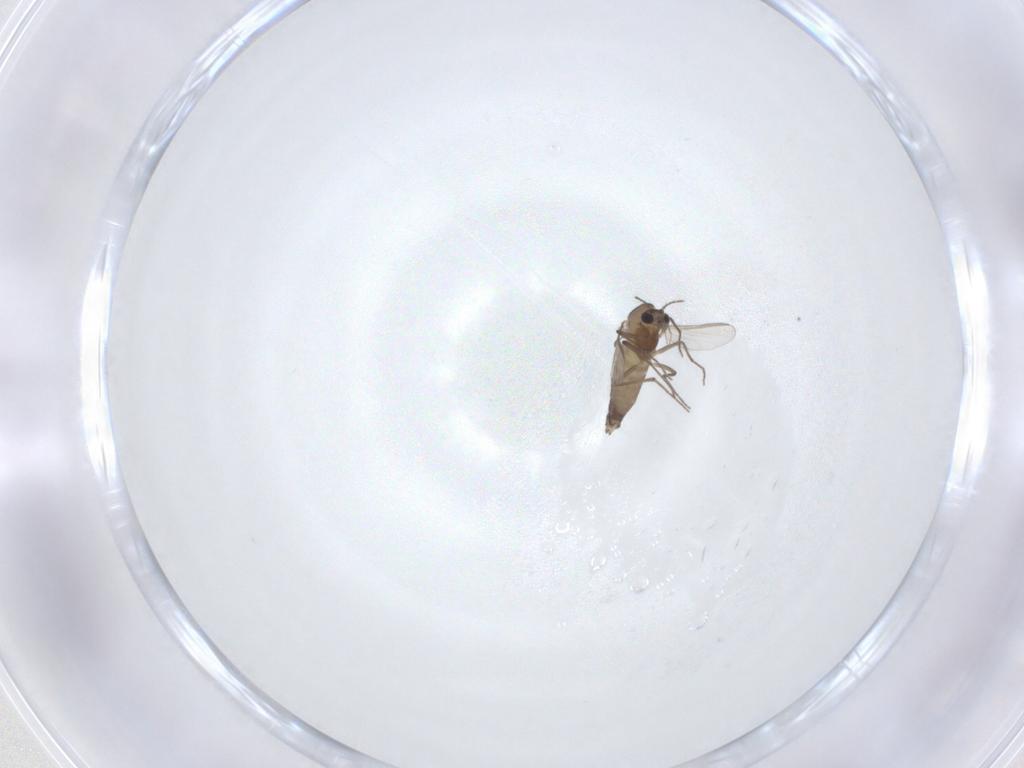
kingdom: Animalia
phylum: Arthropoda
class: Insecta
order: Diptera
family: Chironomidae
